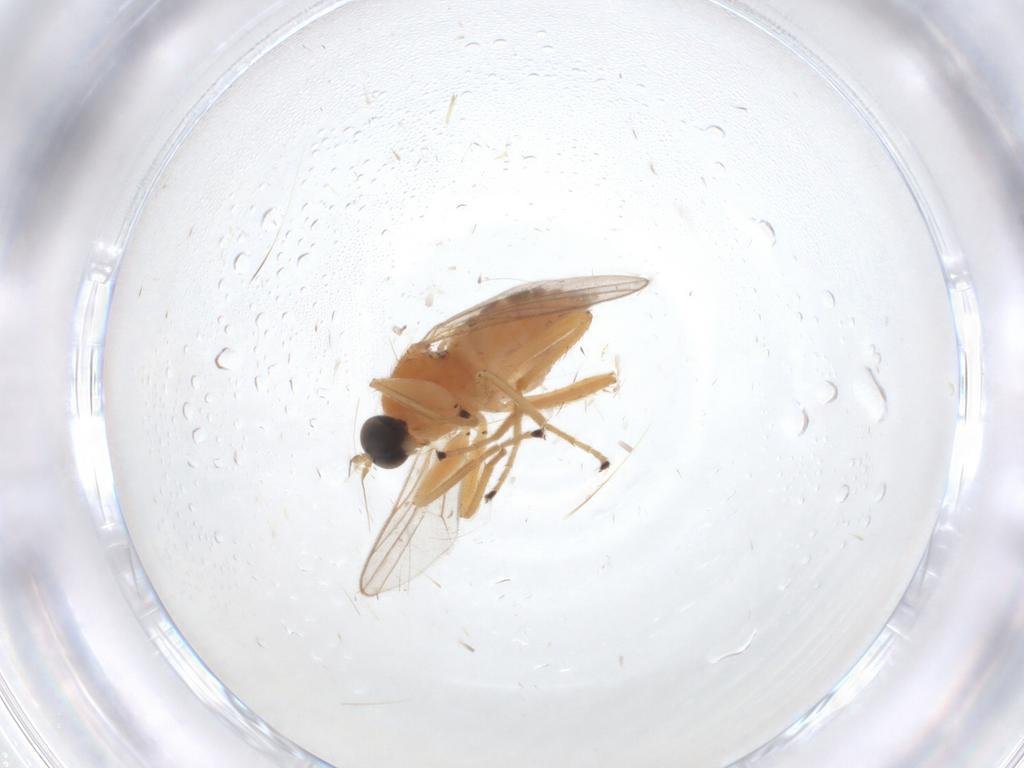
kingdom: Animalia
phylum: Arthropoda
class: Insecta
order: Diptera
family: Hybotidae
